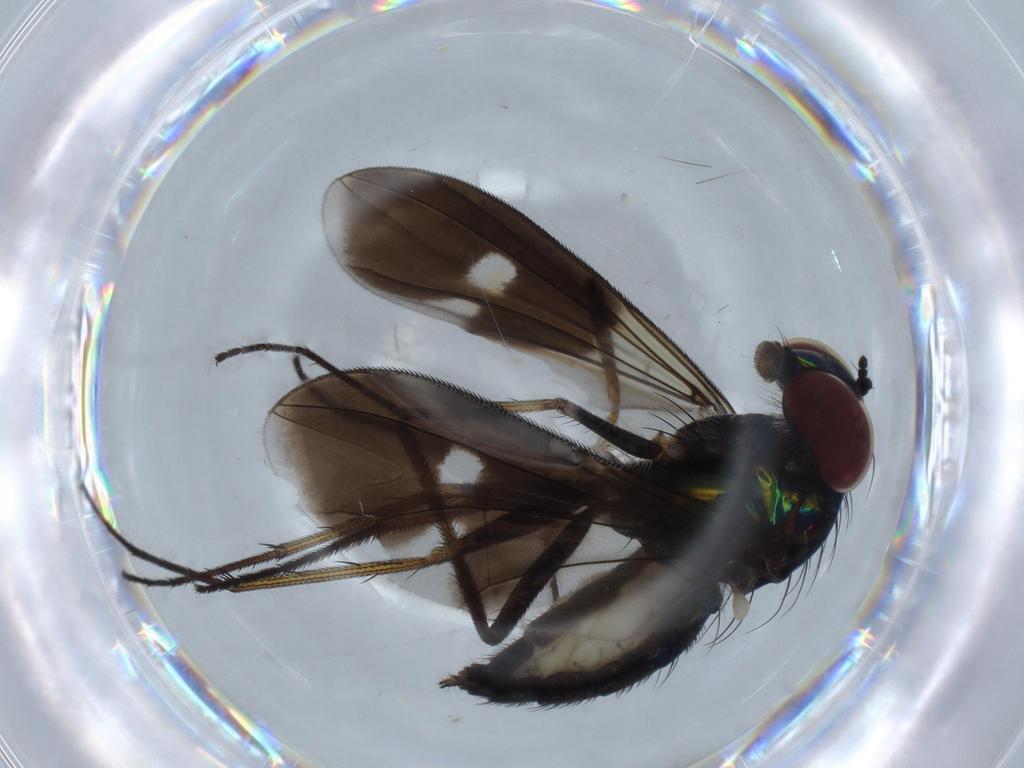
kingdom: Animalia
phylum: Arthropoda
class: Insecta
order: Diptera
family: Dolichopodidae
